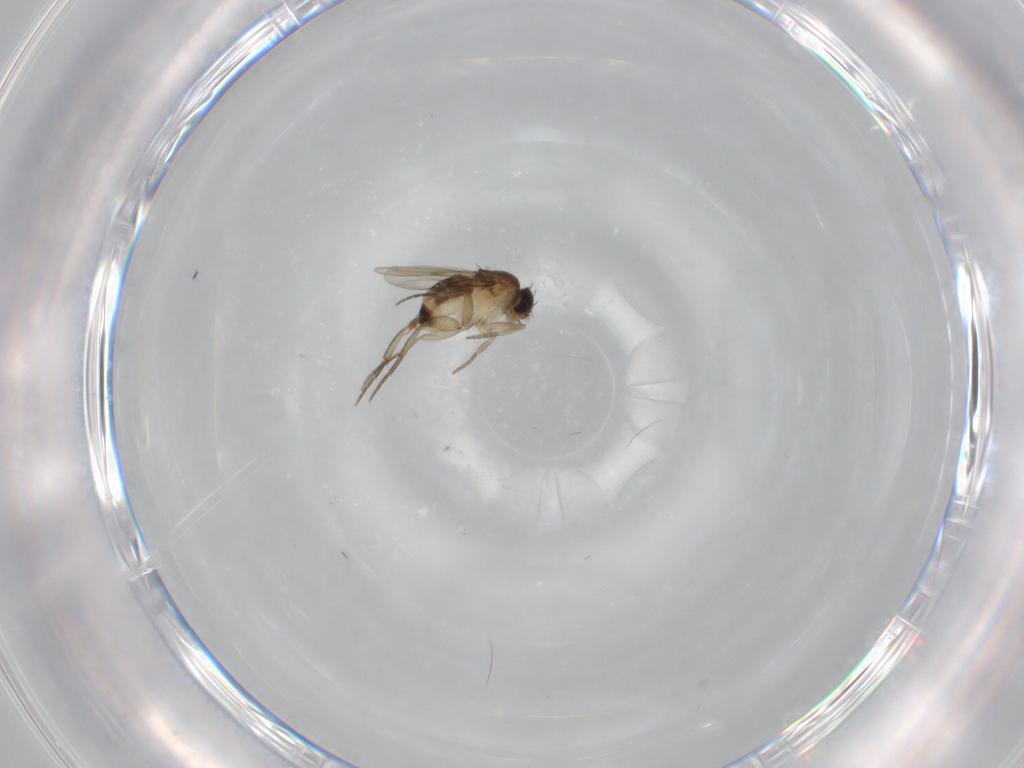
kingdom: Animalia
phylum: Arthropoda
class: Insecta
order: Diptera
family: Phoridae
